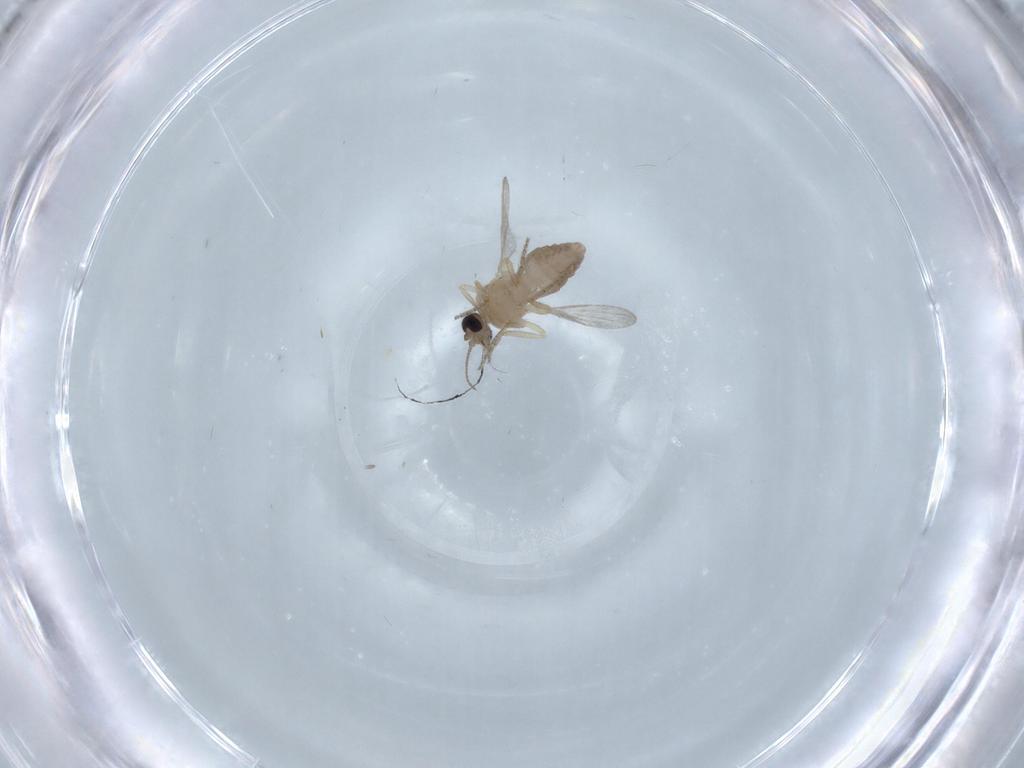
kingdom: Animalia
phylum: Arthropoda
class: Insecta
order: Diptera
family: Ceratopogonidae
